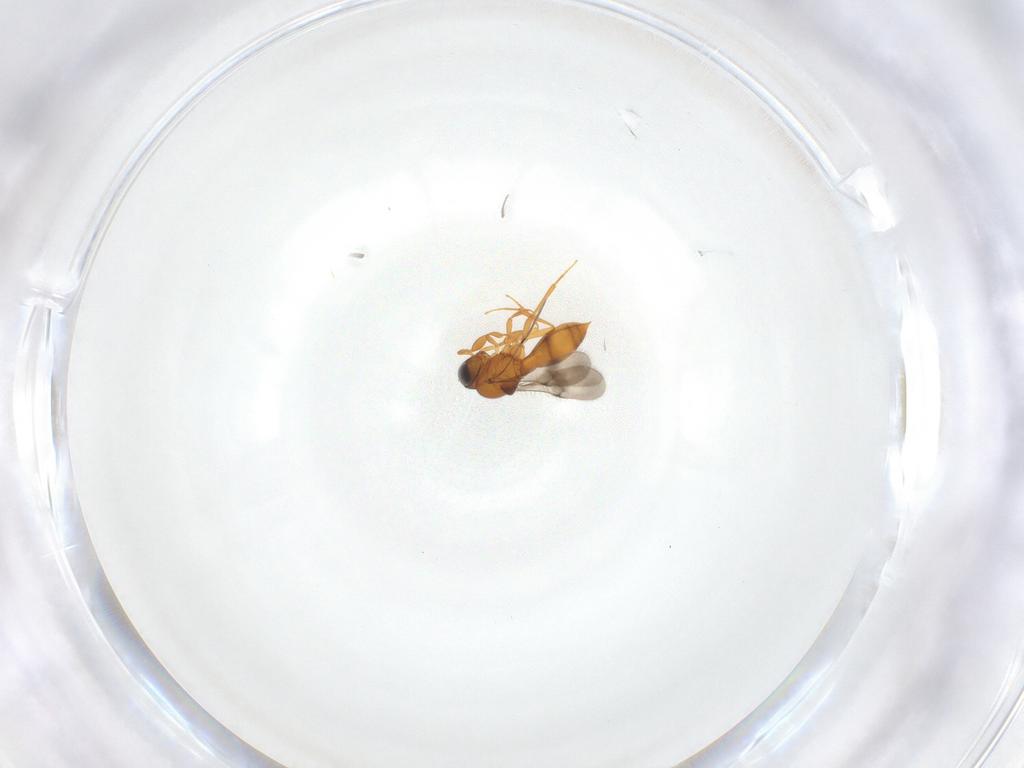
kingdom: Animalia
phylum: Arthropoda
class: Insecta
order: Hymenoptera
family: Scelionidae
